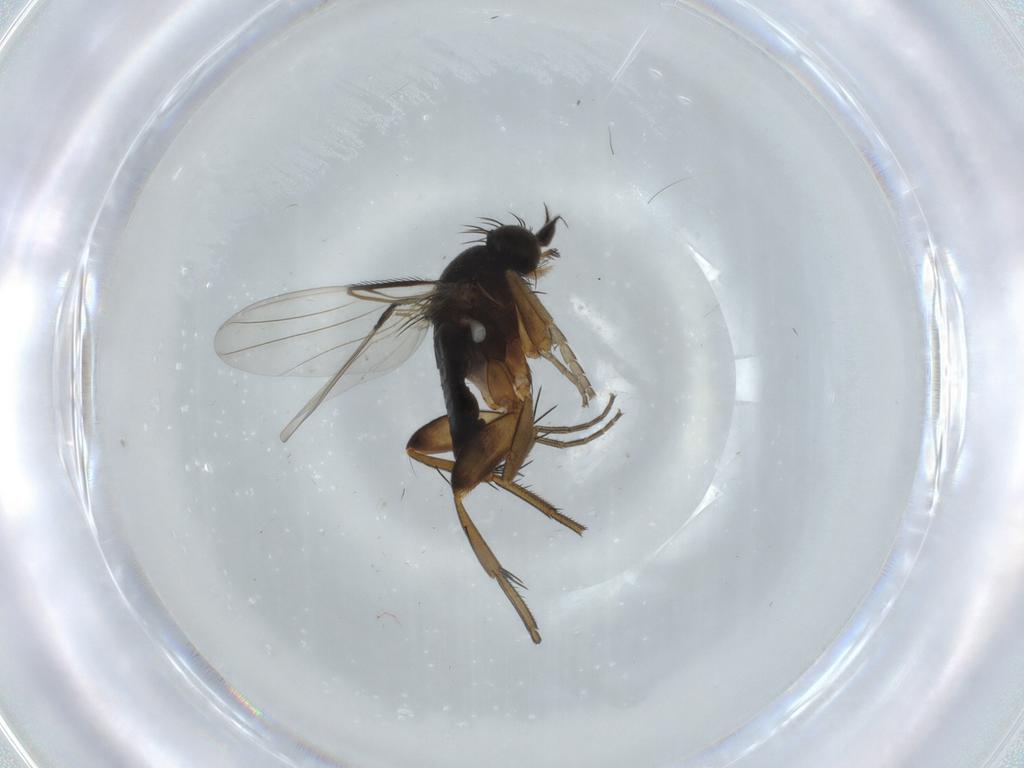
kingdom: Animalia
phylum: Arthropoda
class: Insecta
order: Diptera
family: Phoridae
